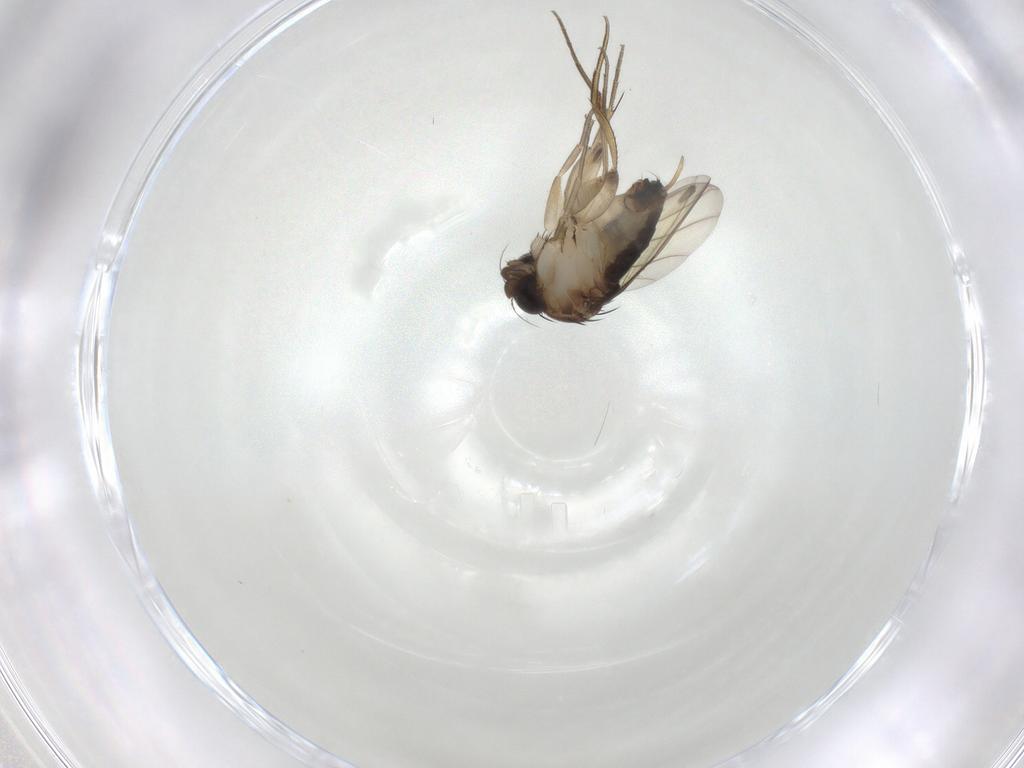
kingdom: Animalia
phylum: Arthropoda
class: Insecta
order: Diptera
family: Phoridae
